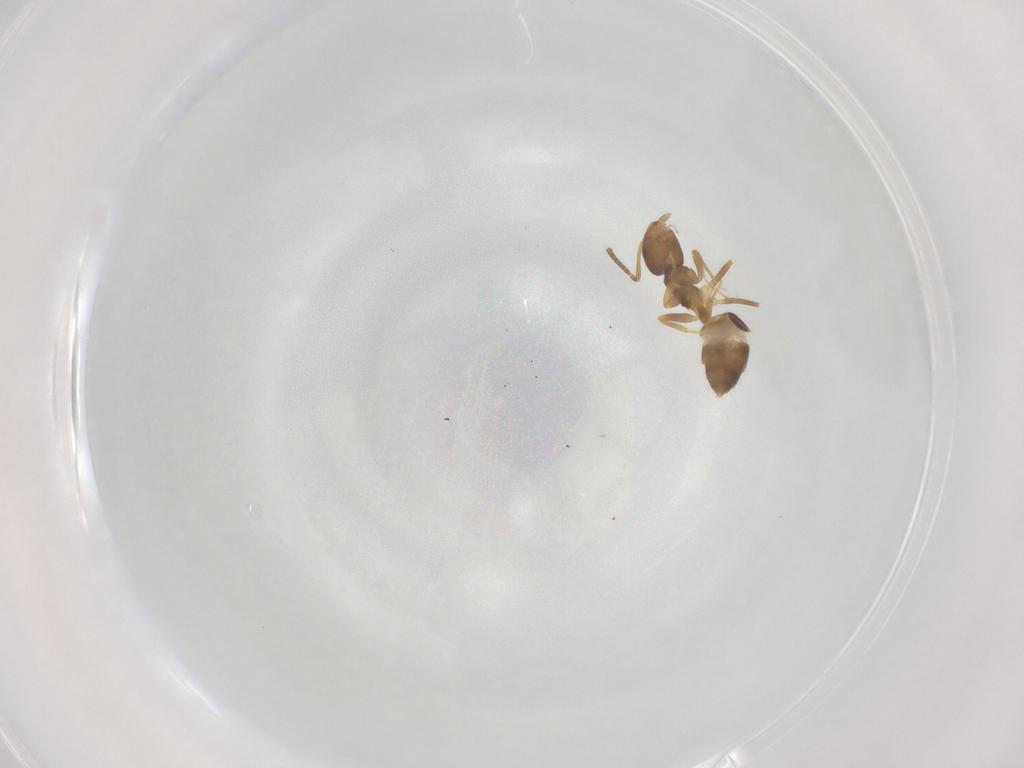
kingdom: Animalia
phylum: Arthropoda
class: Insecta
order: Hymenoptera
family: Formicidae
